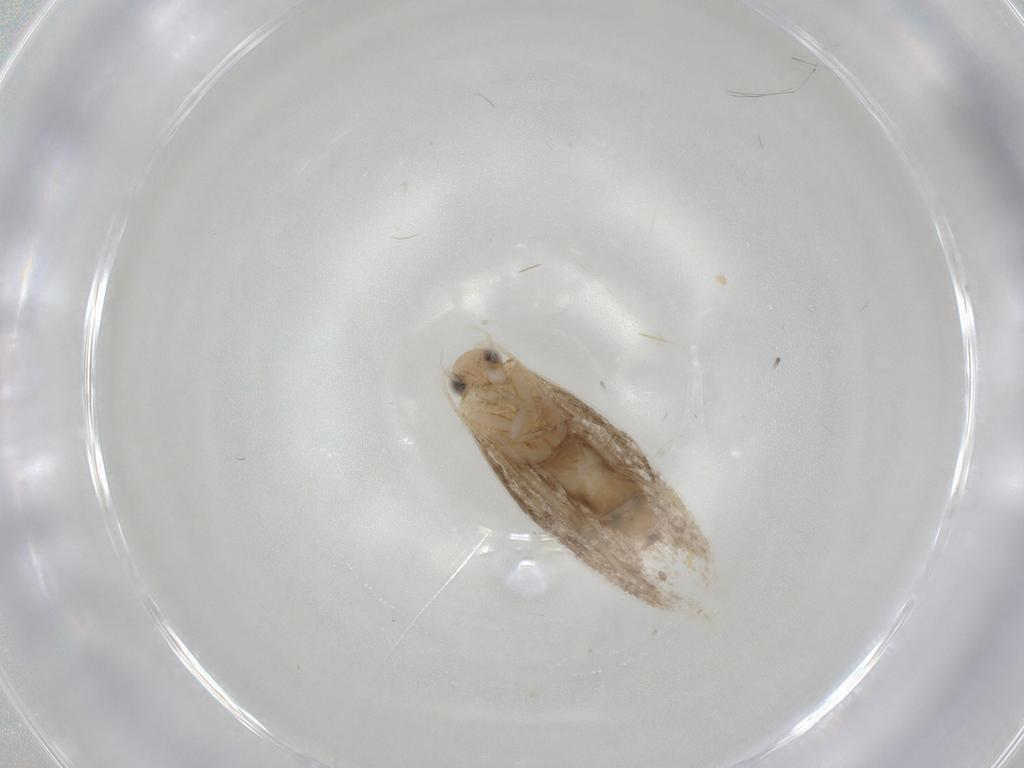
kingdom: Animalia
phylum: Arthropoda
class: Insecta
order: Lepidoptera
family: Nepticulidae
